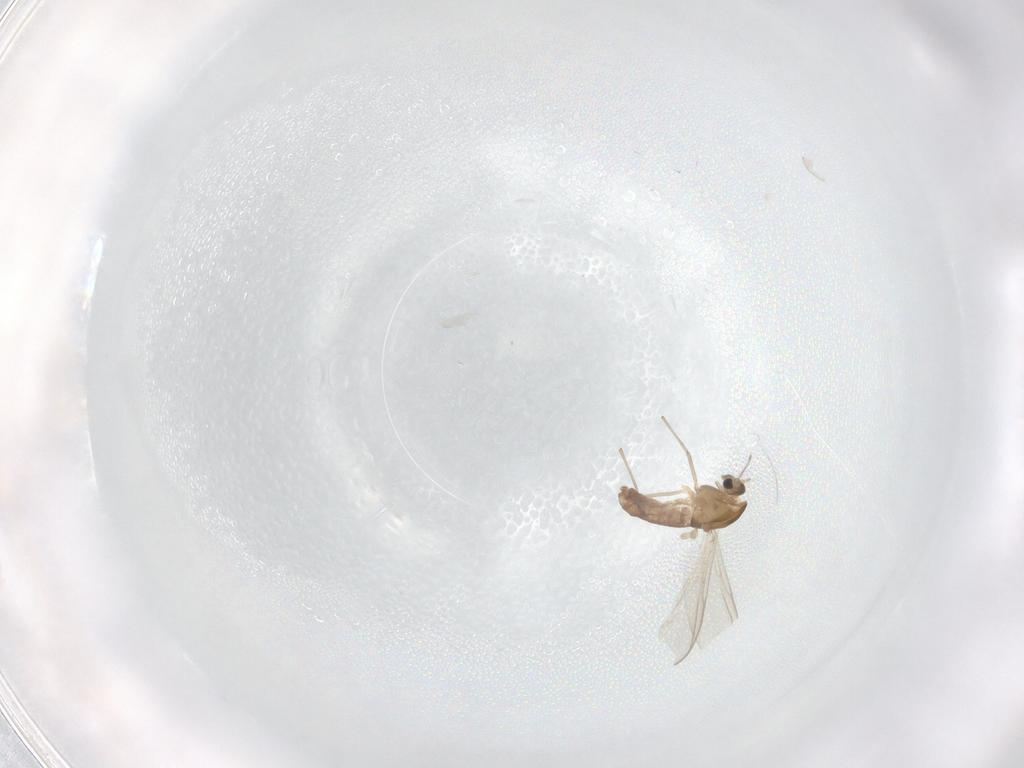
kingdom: Animalia
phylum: Arthropoda
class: Insecta
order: Diptera
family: Chironomidae
